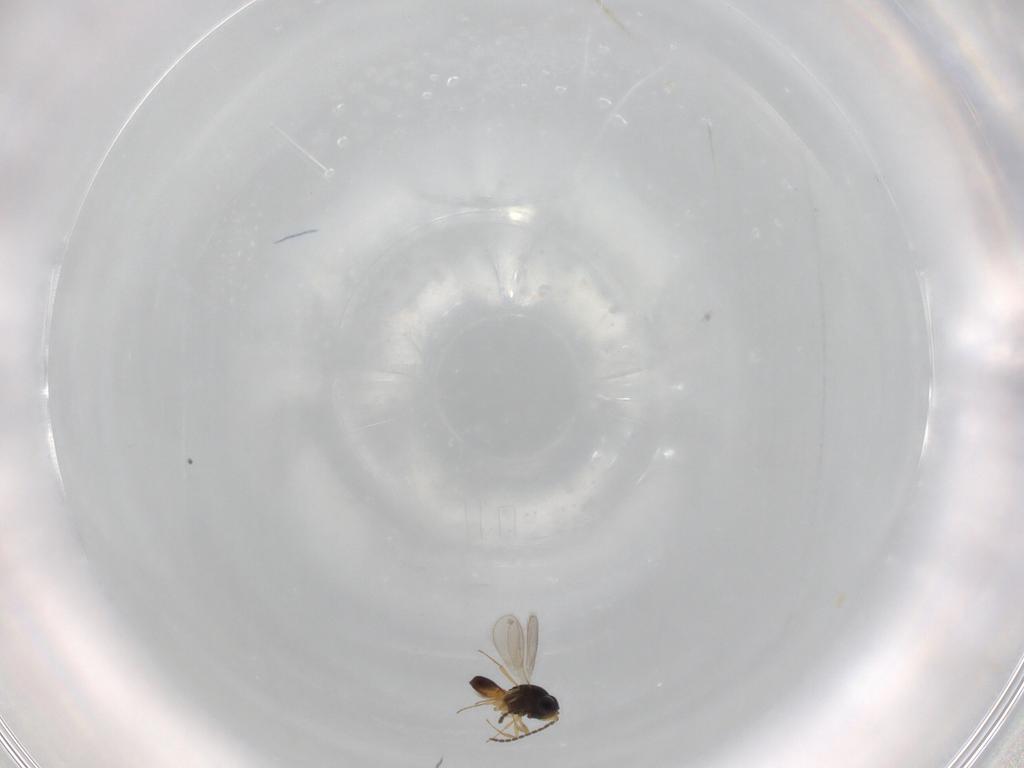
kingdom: Animalia
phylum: Arthropoda
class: Insecta
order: Hymenoptera
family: Scelionidae
